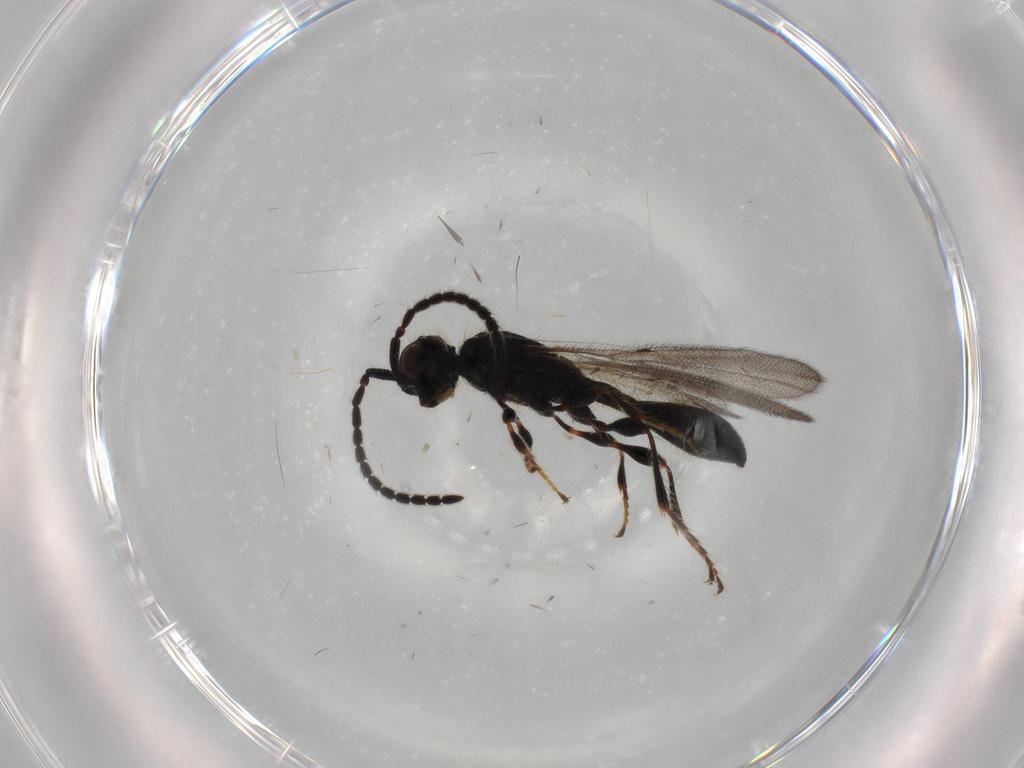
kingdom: Animalia
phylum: Arthropoda
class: Insecta
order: Hymenoptera
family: Diapriidae
